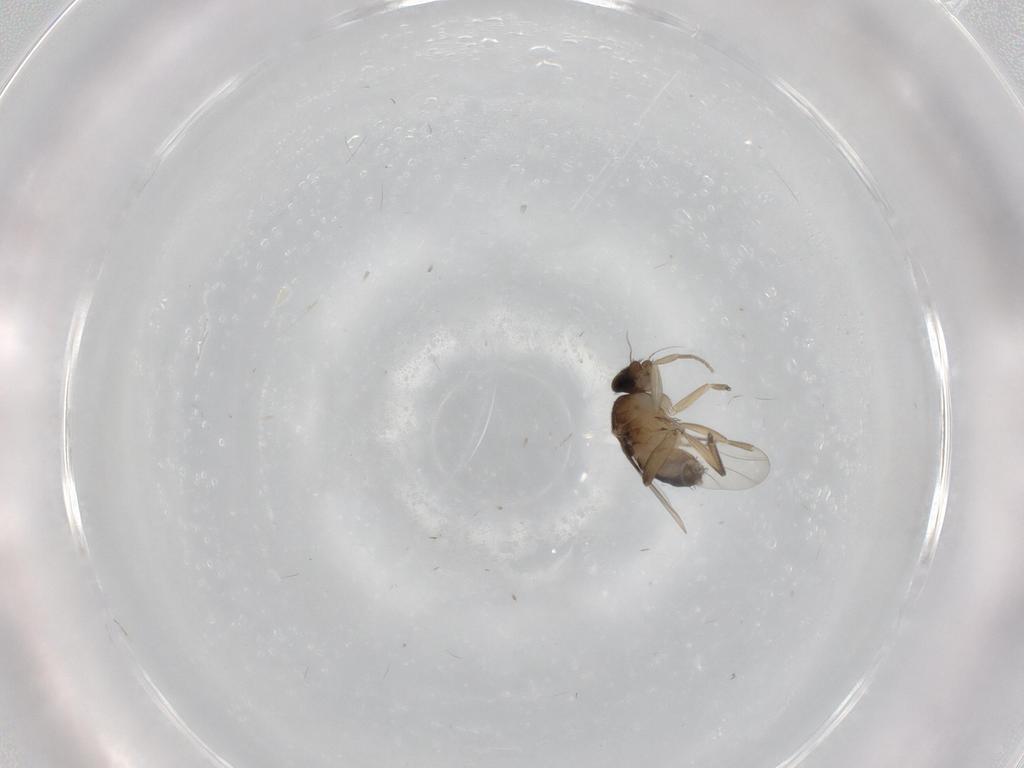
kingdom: Animalia
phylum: Arthropoda
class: Insecta
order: Diptera
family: Phoridae
